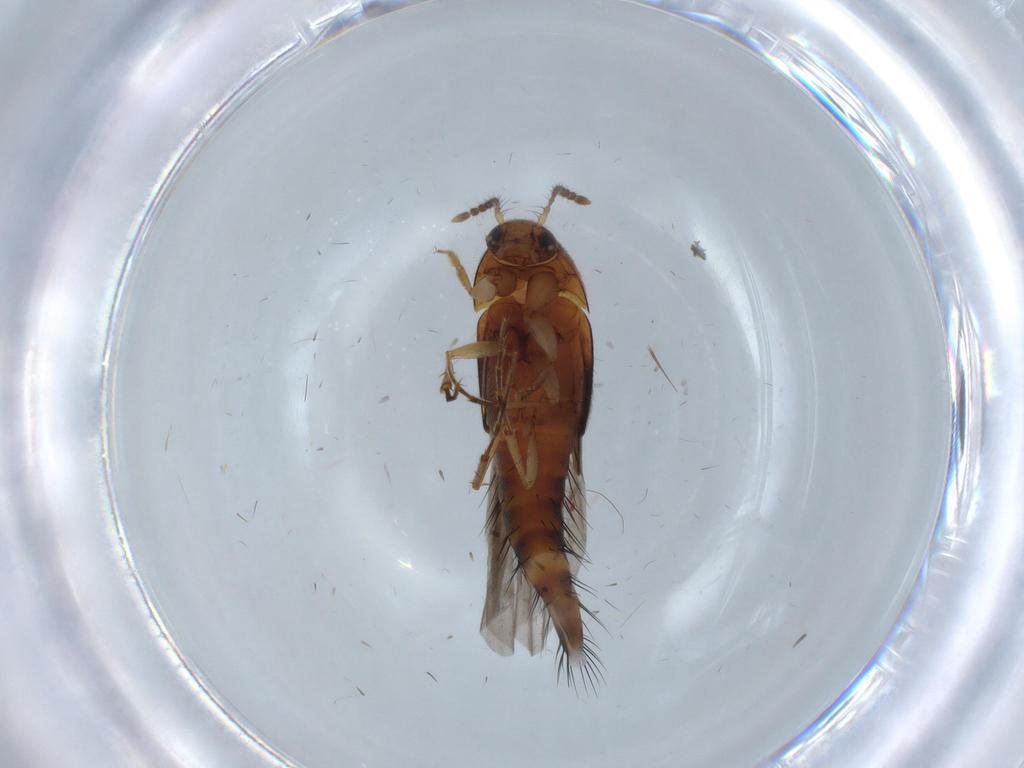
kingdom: Animalia
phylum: Arthropoda
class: Insecta
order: Coleoptera
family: Staphylinidae
